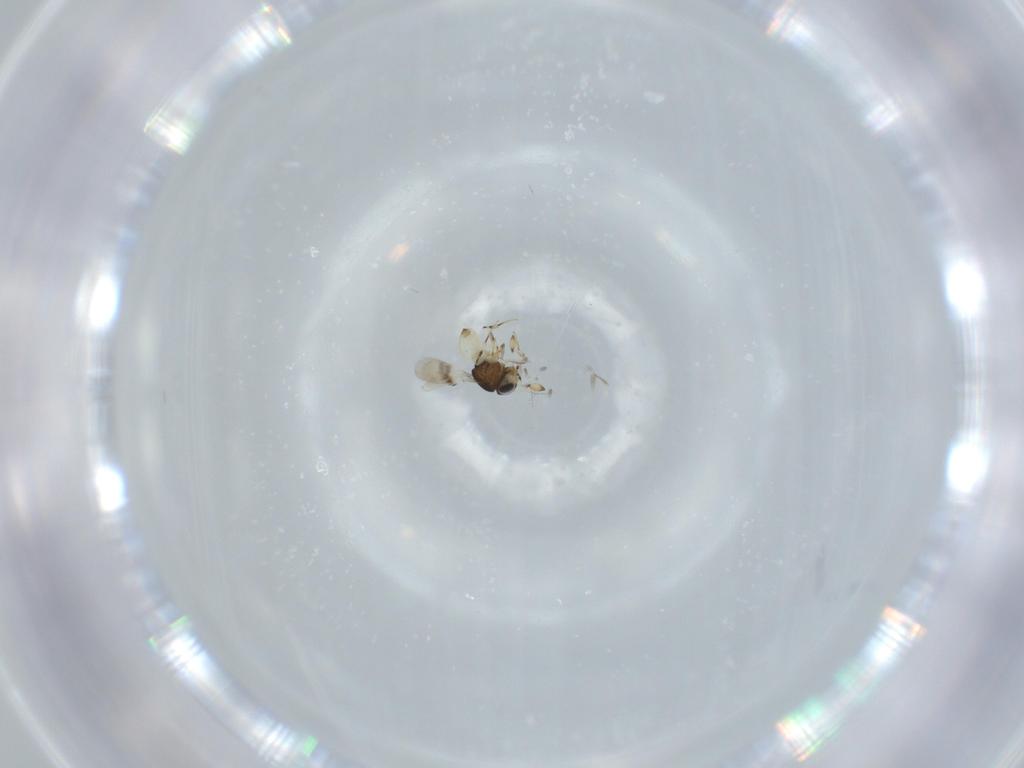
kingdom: Animalia
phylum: Arthropoda
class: Insecta
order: Hymenoptera
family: Scelionidae
